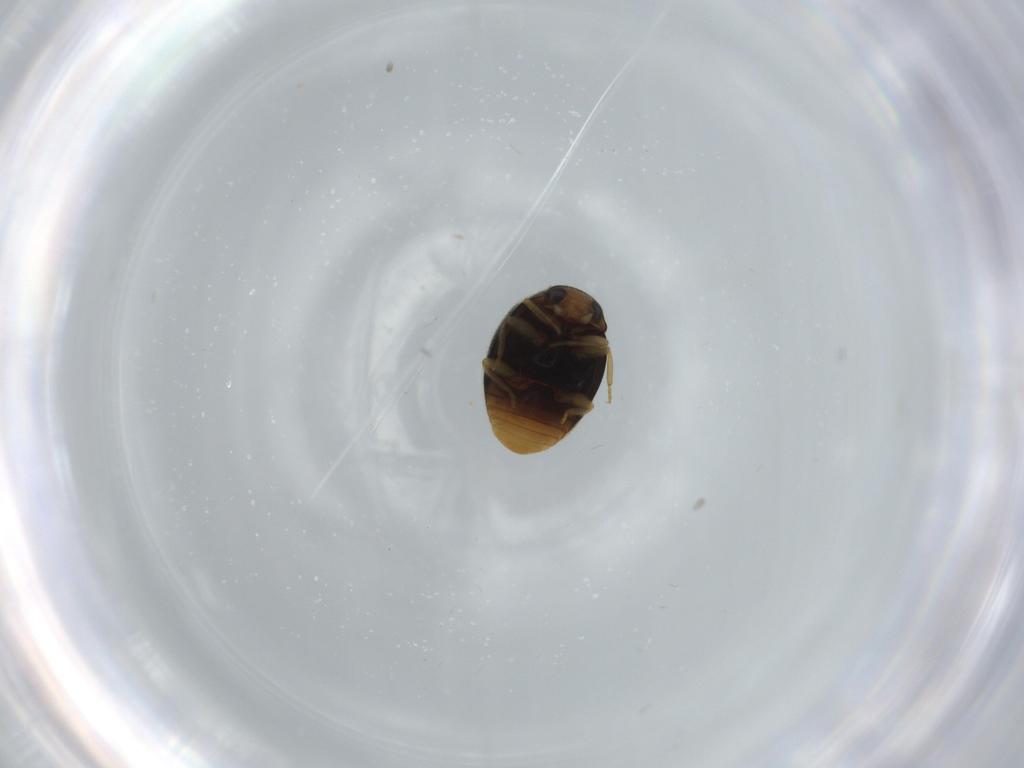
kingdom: Animalia
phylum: Arthropoda
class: Insecta
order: Coleoptera
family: Coccinellidae
